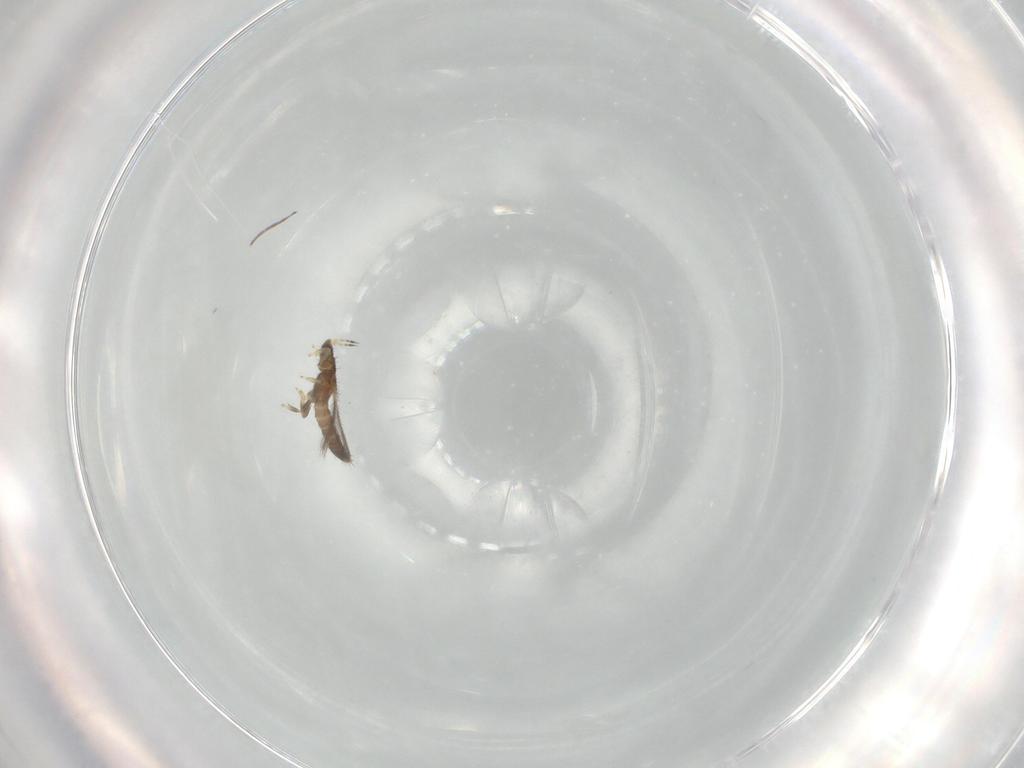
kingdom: Animalia
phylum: Arthropoda
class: Insecta
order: Thysanoptera
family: Thripidae
